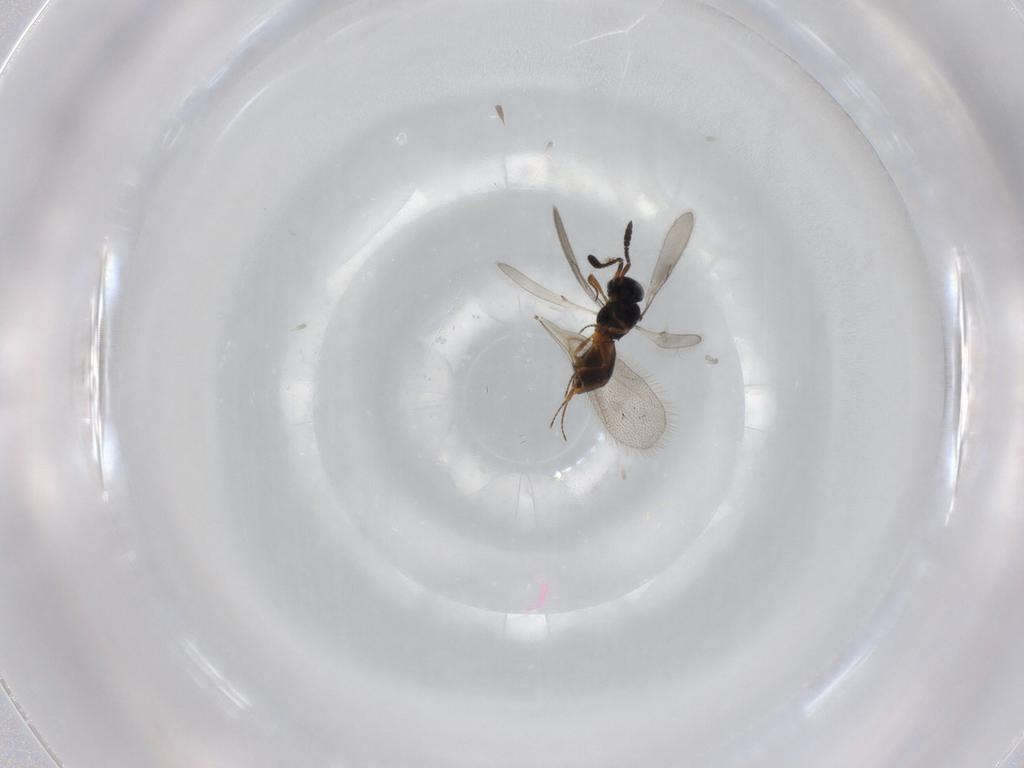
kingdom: Animalia
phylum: Arthropoda
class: Insecta
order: Hymenoptera
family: Scelionidae
